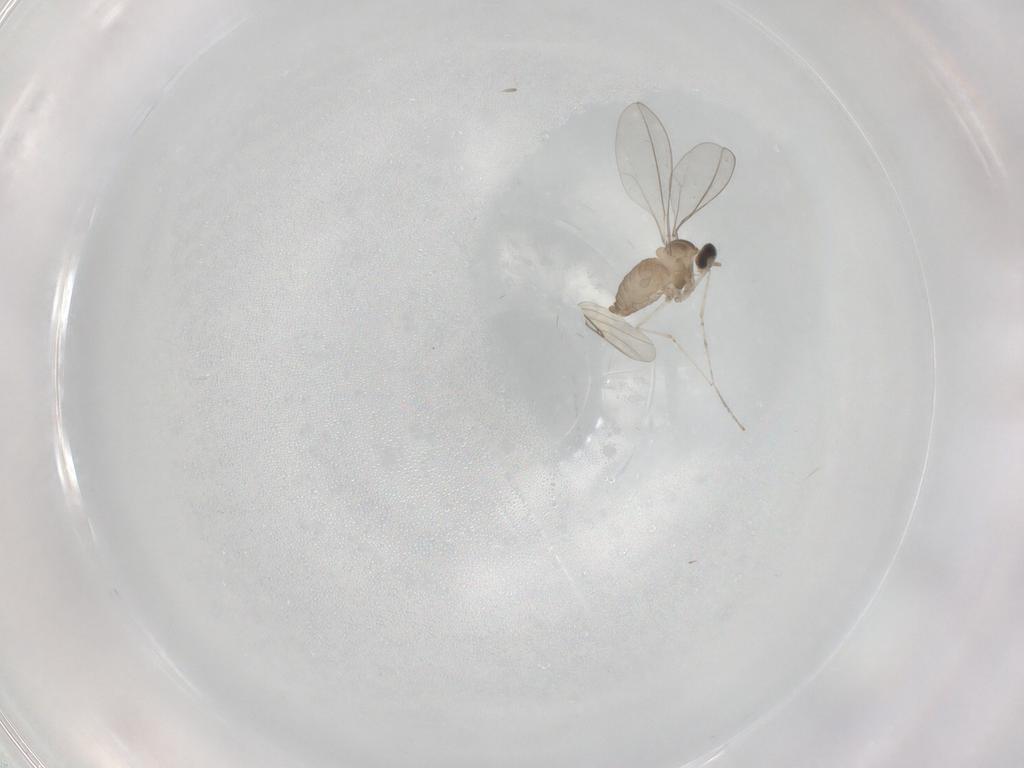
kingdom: Animalia
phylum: Arthropoda
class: Insecta
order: Diptera
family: Cecidomyiidae
